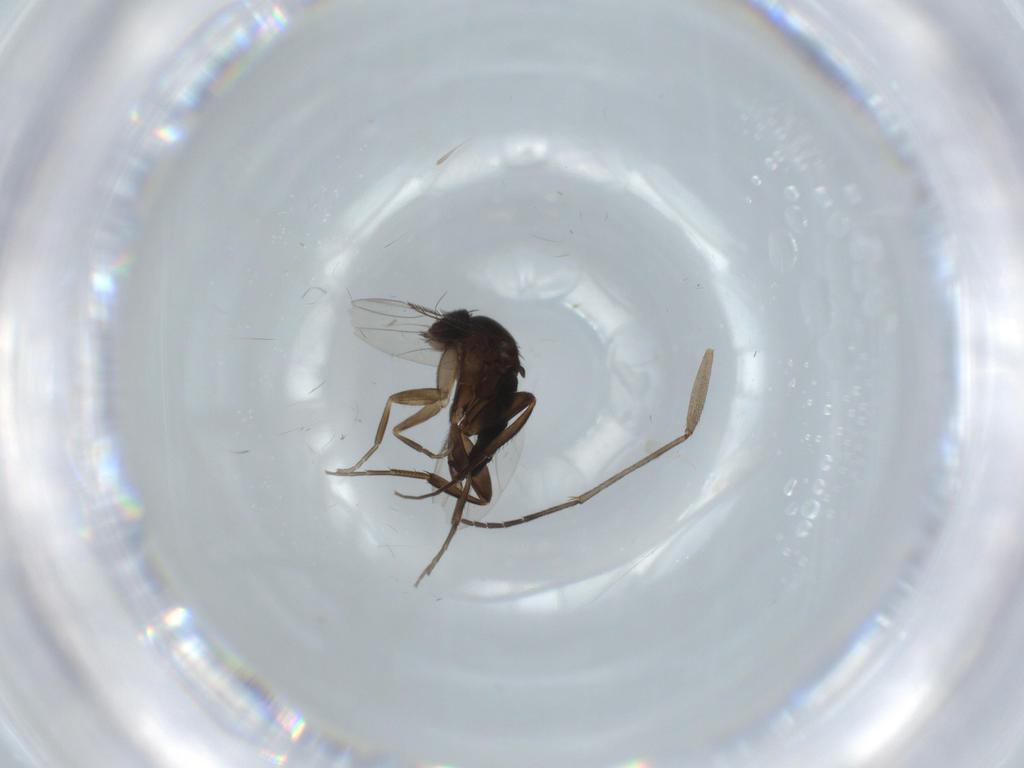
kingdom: Animalia
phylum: Arthropoda
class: Insecta
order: Diptera
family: Phoridae
